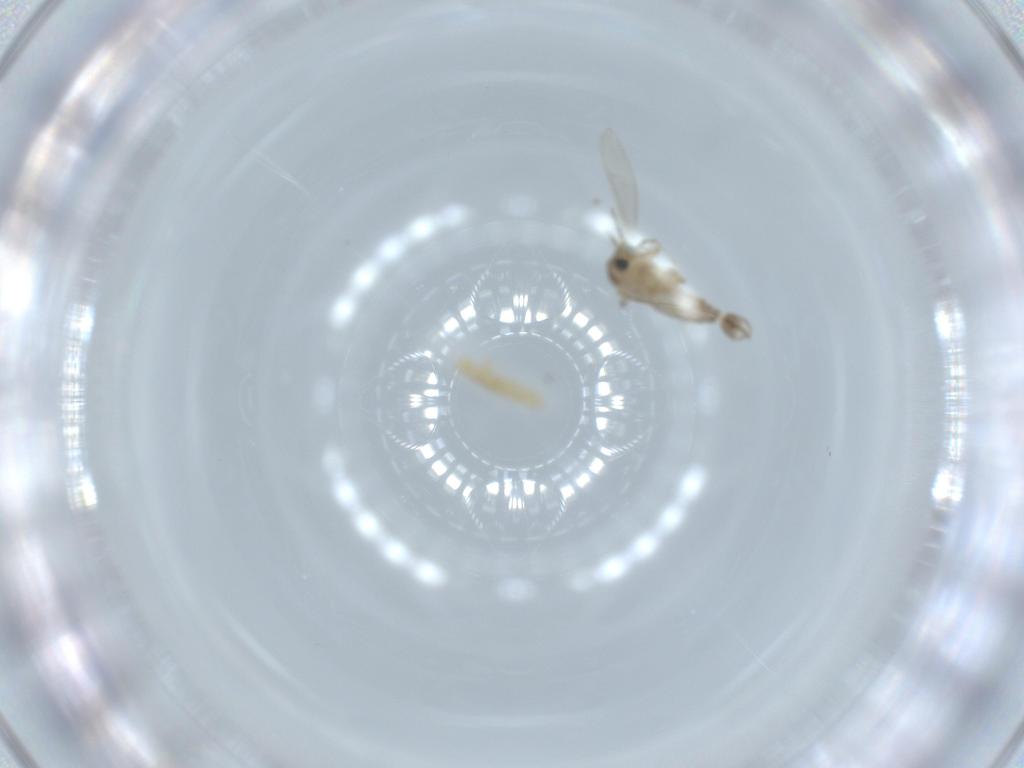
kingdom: Animalia
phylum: Arthropoda
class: Insecta
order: Diptera
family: Psychodidae
